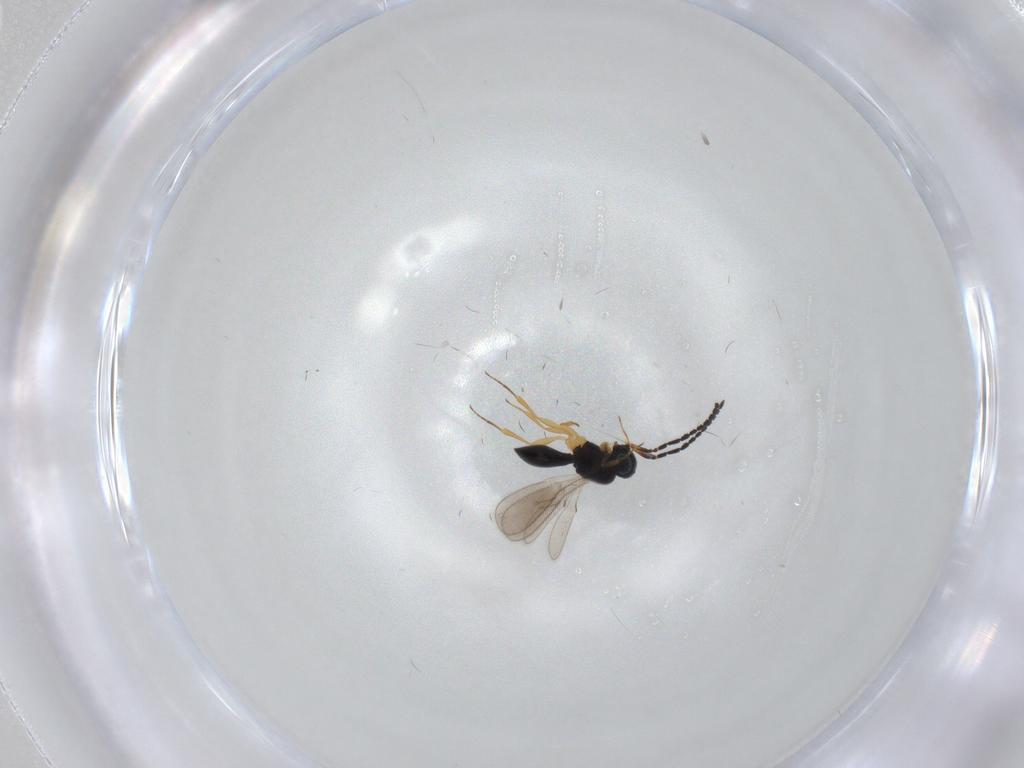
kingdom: Animalia
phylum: Arthropoda
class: Insecta
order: Hymenoptera
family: Scelionidae
